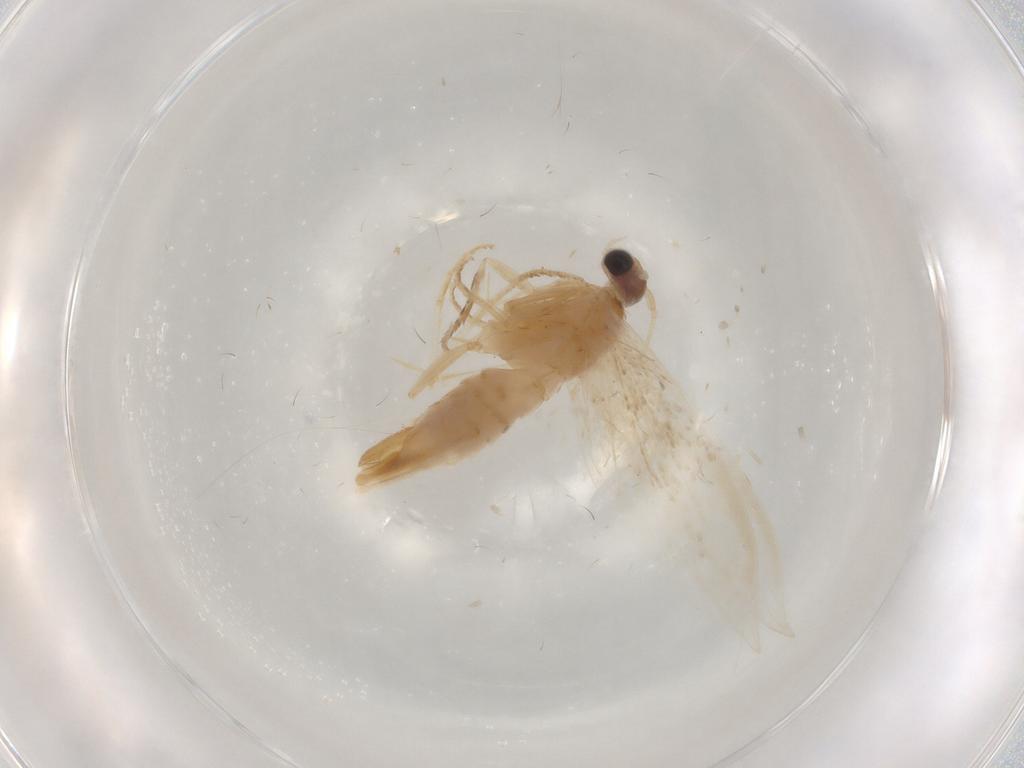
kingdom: Animalia
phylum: Arthropoda
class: Insecta
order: Lepidoptera
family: Tineidae
